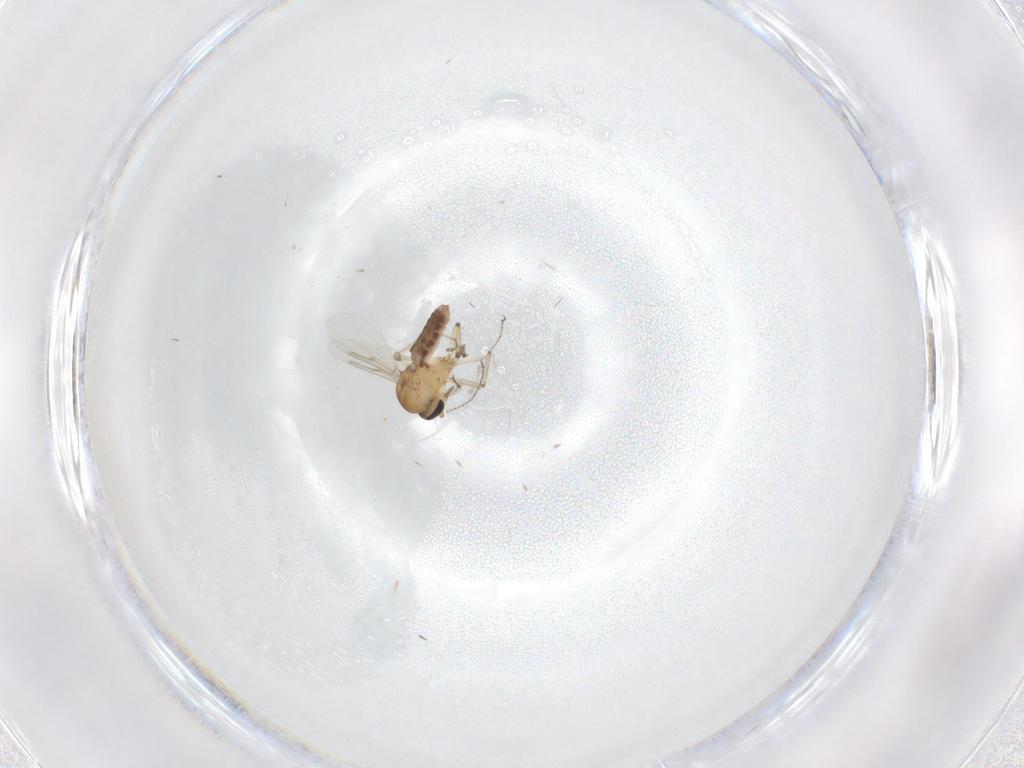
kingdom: Animalia
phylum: Arthropoda
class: Insecta
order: Diptera
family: Ceratopogonidae
